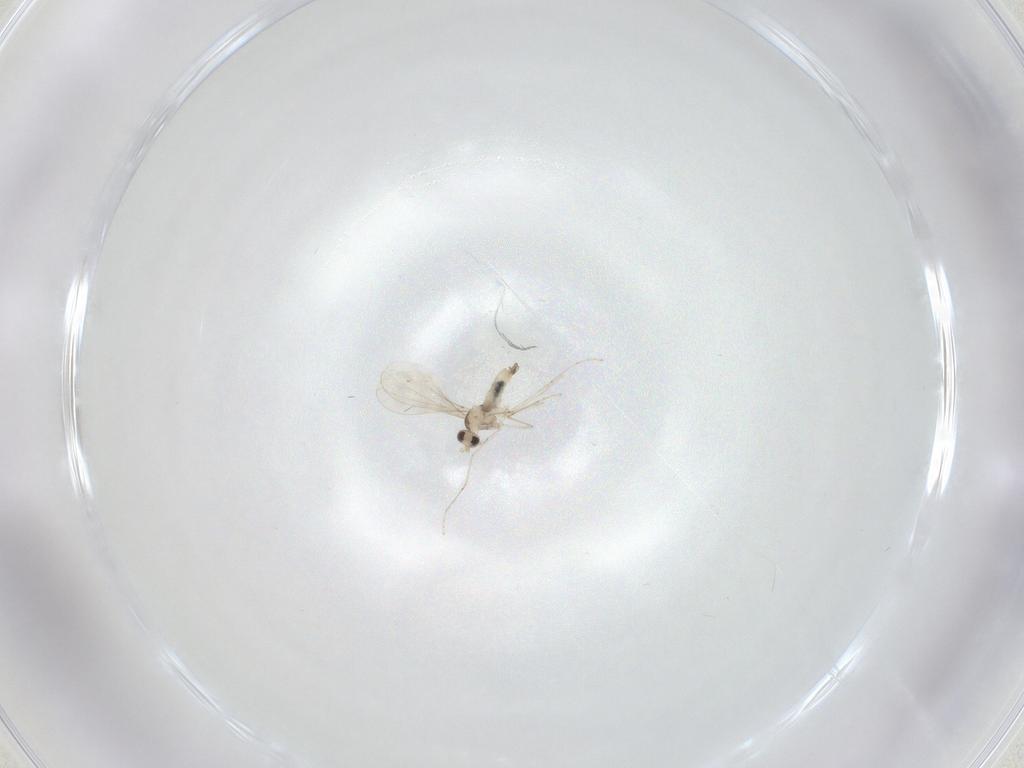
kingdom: Animalia
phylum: Arthropoda
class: Insecta
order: Diptera
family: Cecidomyiidae
